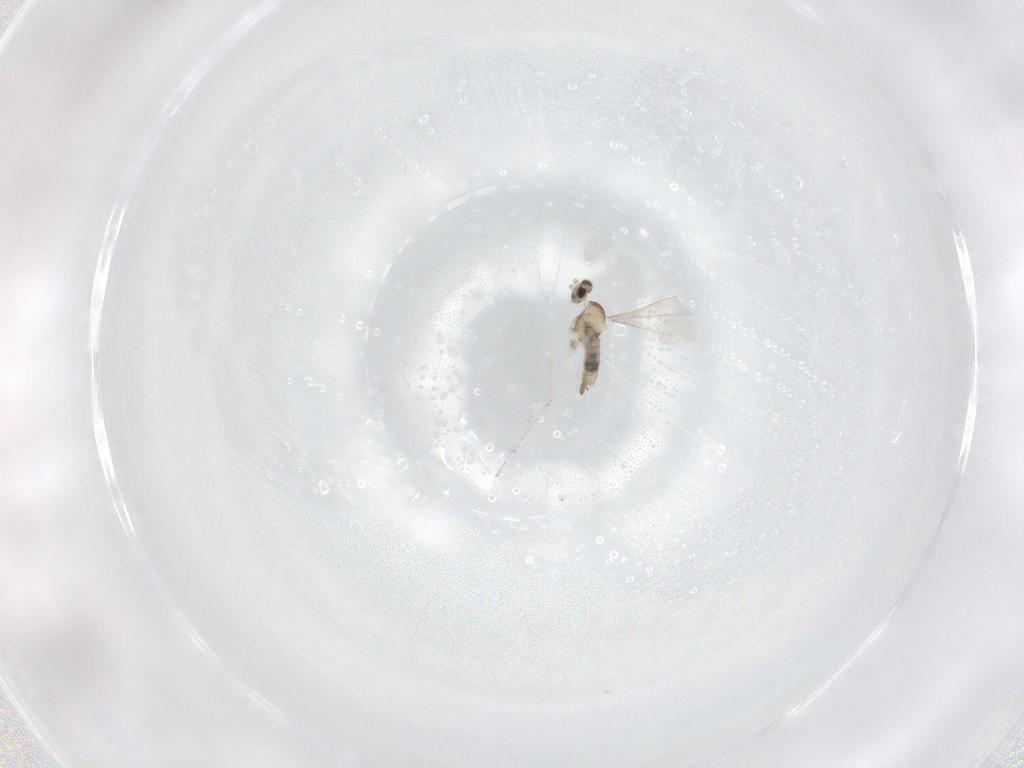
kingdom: Animalia
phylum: Arthropoda
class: Insecta
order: Diptera
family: Cecidomyiidae
